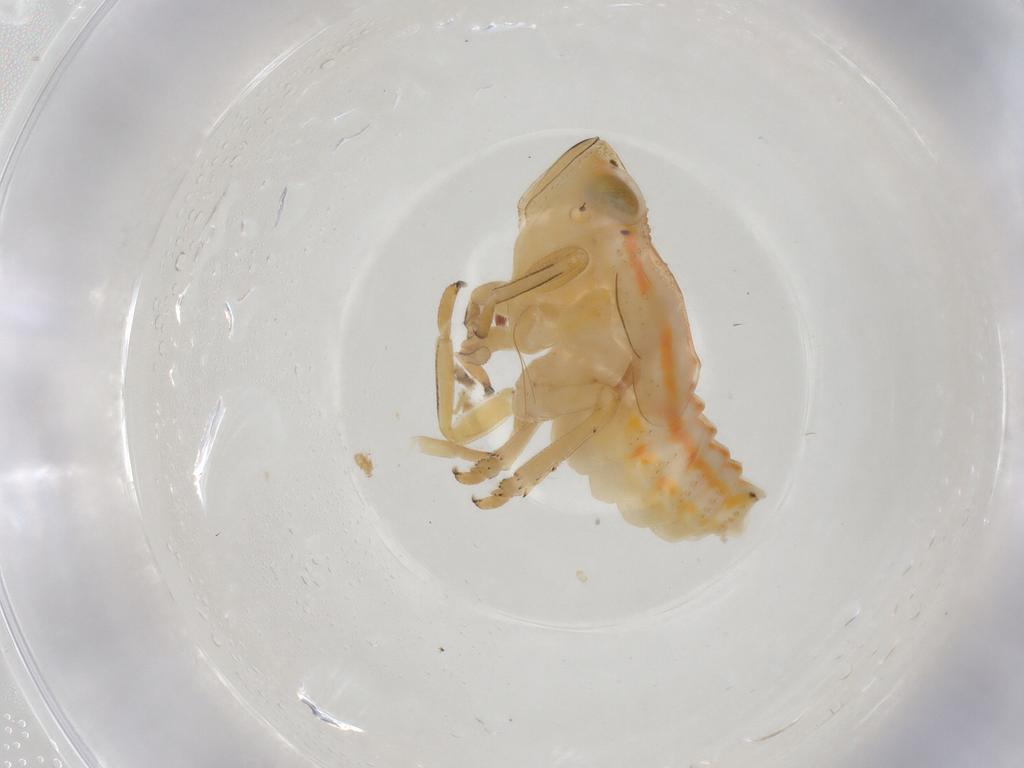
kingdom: Animalia
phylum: Arthropoda
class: Insecta
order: Hemiptera
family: Issidae
